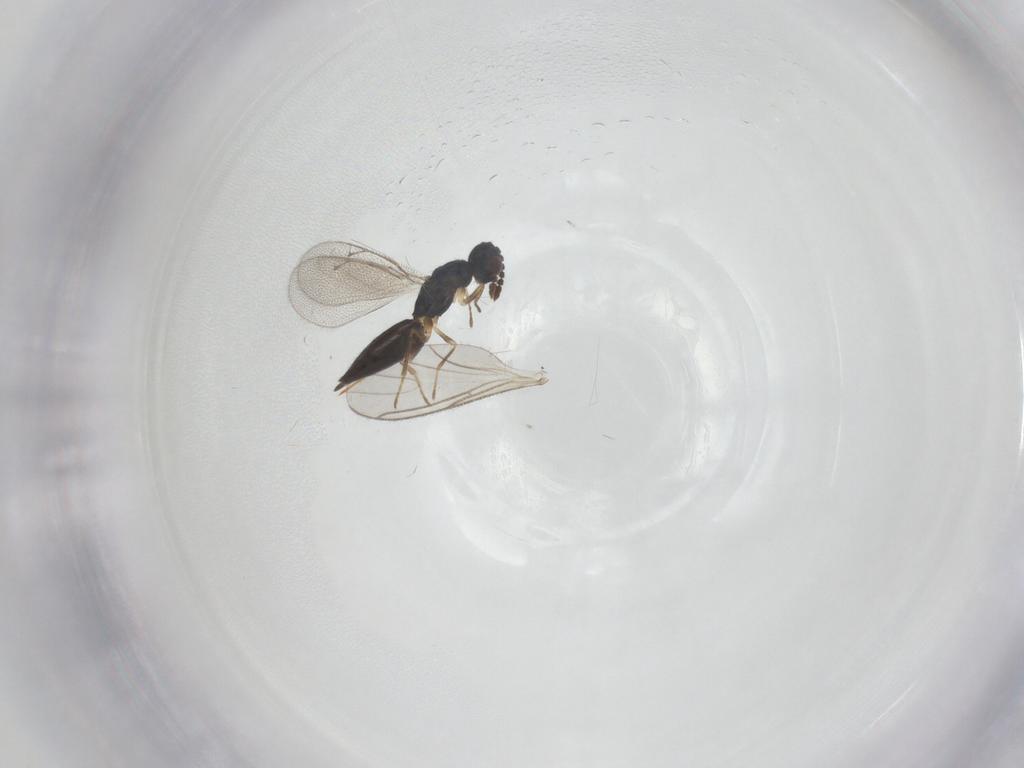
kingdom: Animalia
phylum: Arthropoda
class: Insecta
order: Hymenoptera
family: Eulophidae
